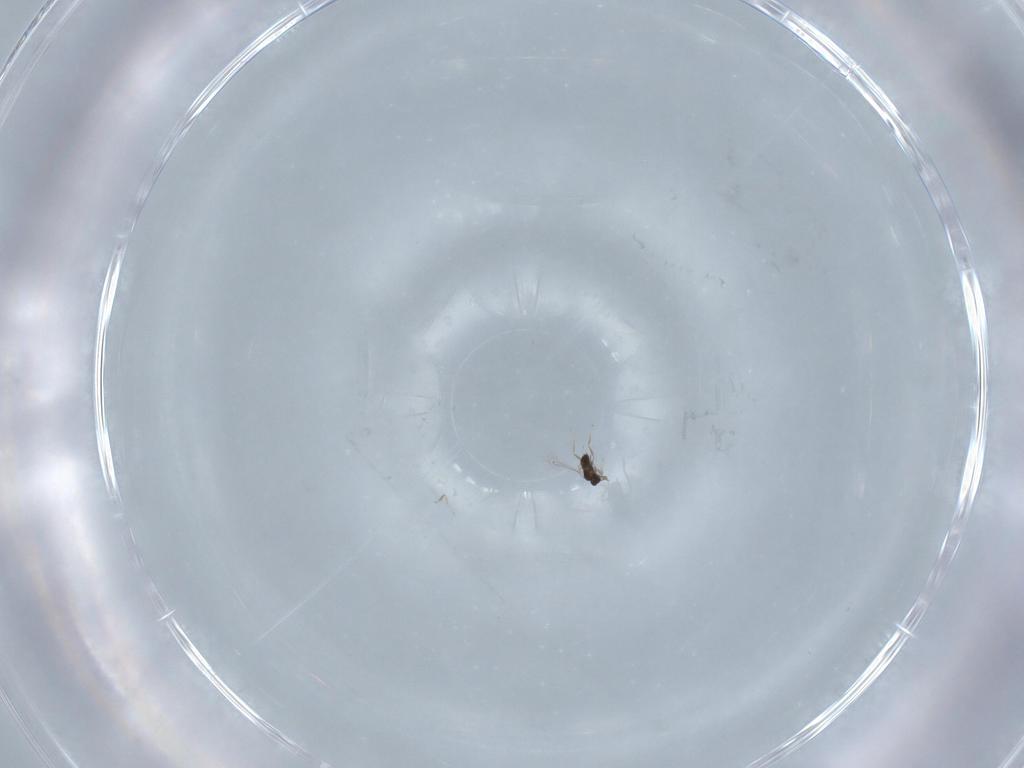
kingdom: Animalia
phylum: Arthropoda
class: Insecta
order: Hymenoptera
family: Mymaridae
